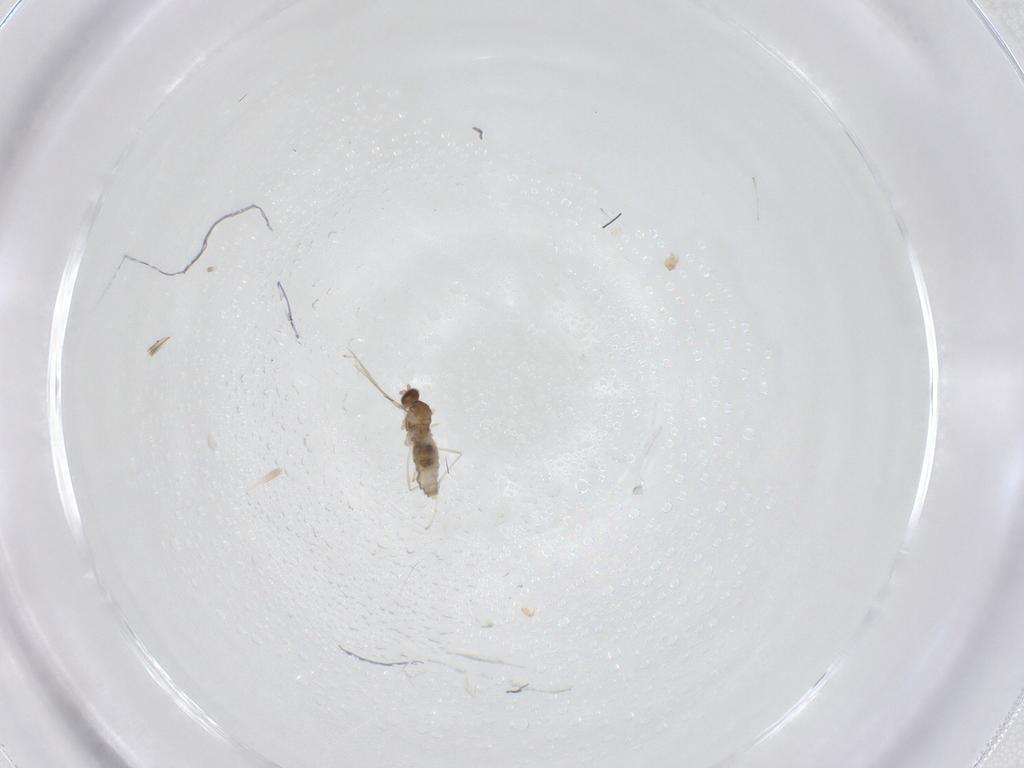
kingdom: Animalia
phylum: Arthropoda
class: Insecta
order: Diptera
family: Cecidomyiidae
